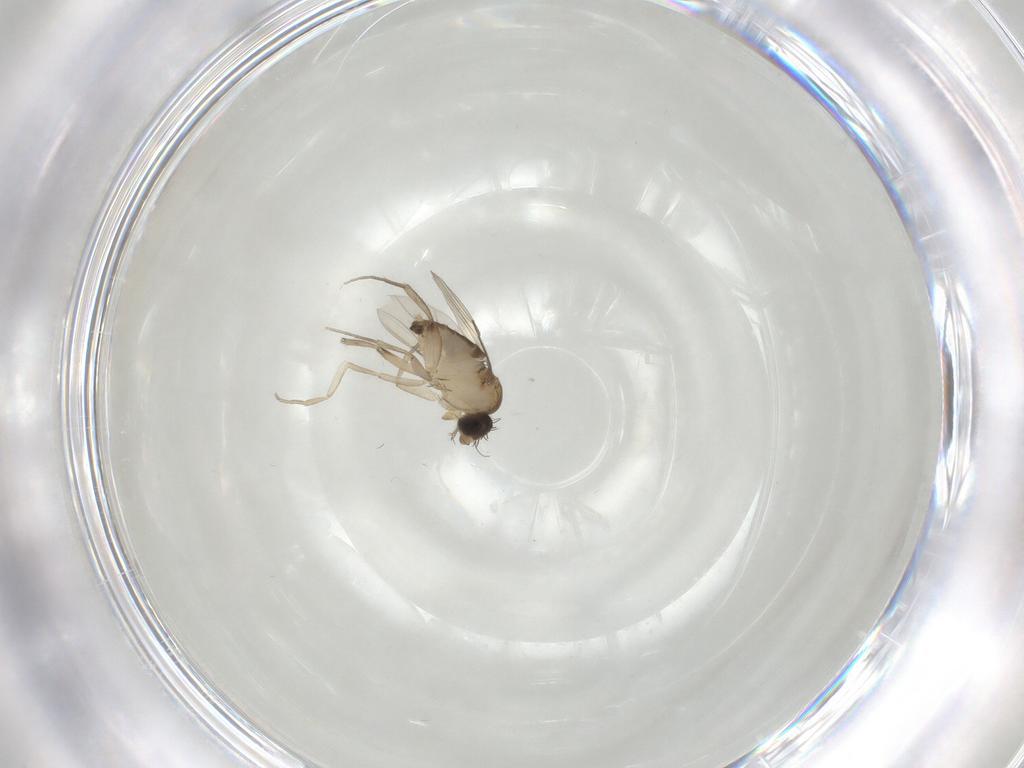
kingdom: Animalia
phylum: Arthropoda
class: Insecta
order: Diptera
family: Phoridae
